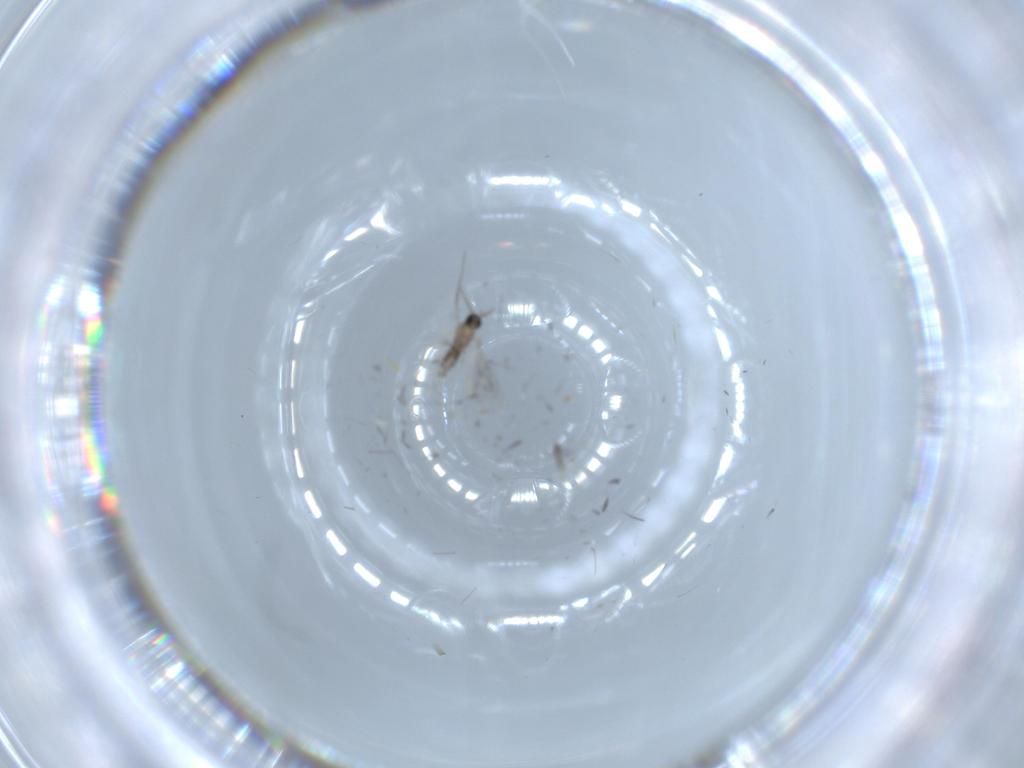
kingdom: Animalia
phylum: Arthropoda
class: Insecta
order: Diptera
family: Cecidomyiidae
